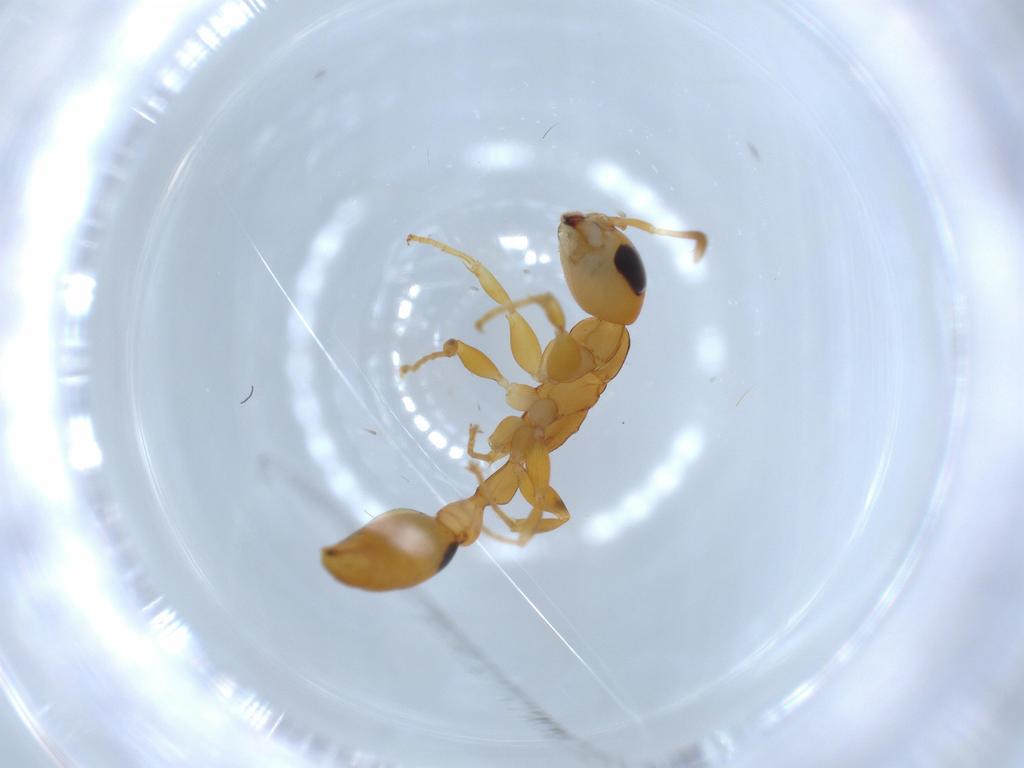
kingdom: Animalia
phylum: Arthropoda
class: Insecta
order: Hymenoptera
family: Formicidae
